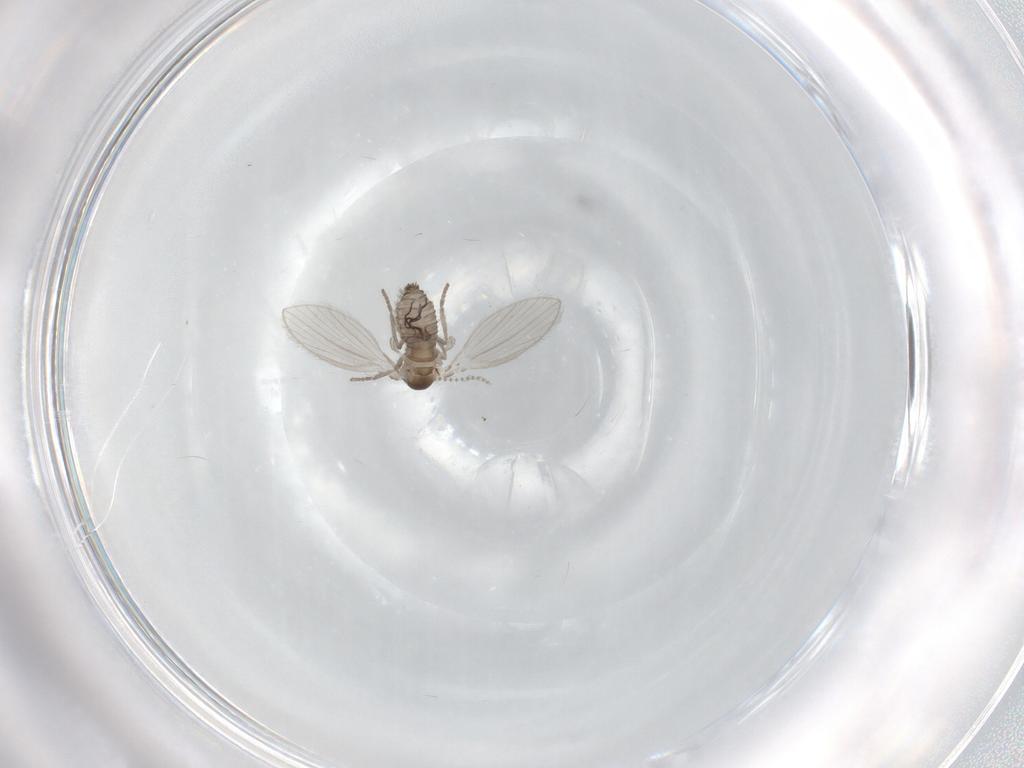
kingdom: Animalia
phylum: Arthropoda
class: Insecta
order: Diptera
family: Psychodidae
